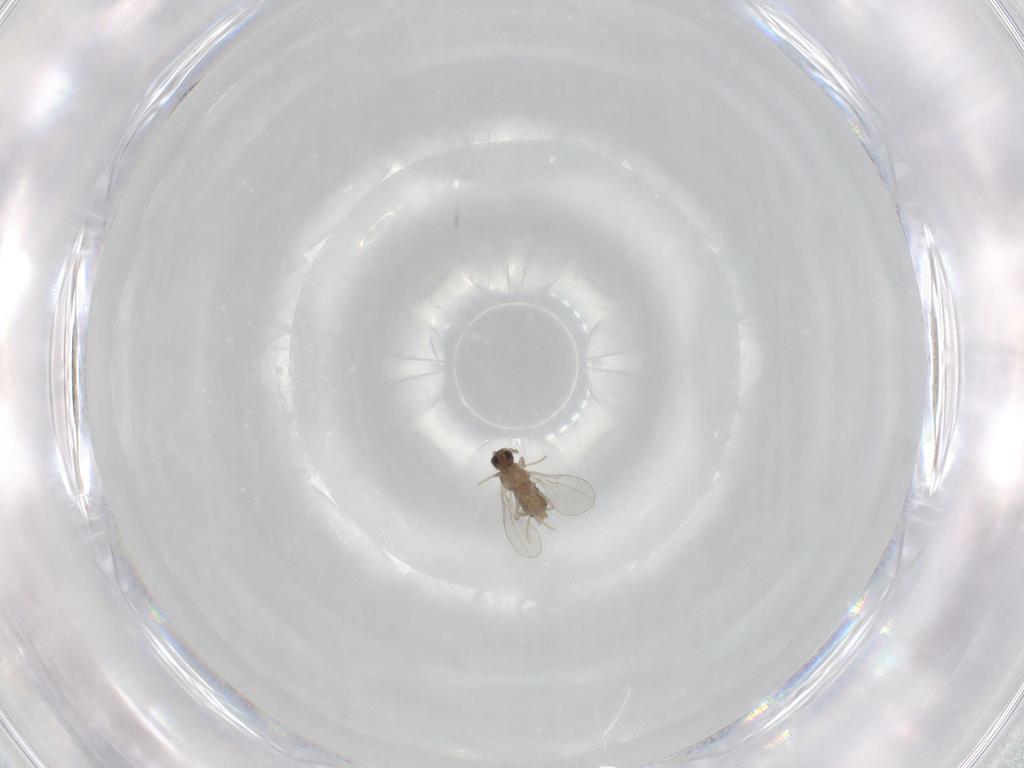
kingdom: Animalia
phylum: Arthropoda
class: Insecta
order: Diptera
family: Cecidomyiidae
